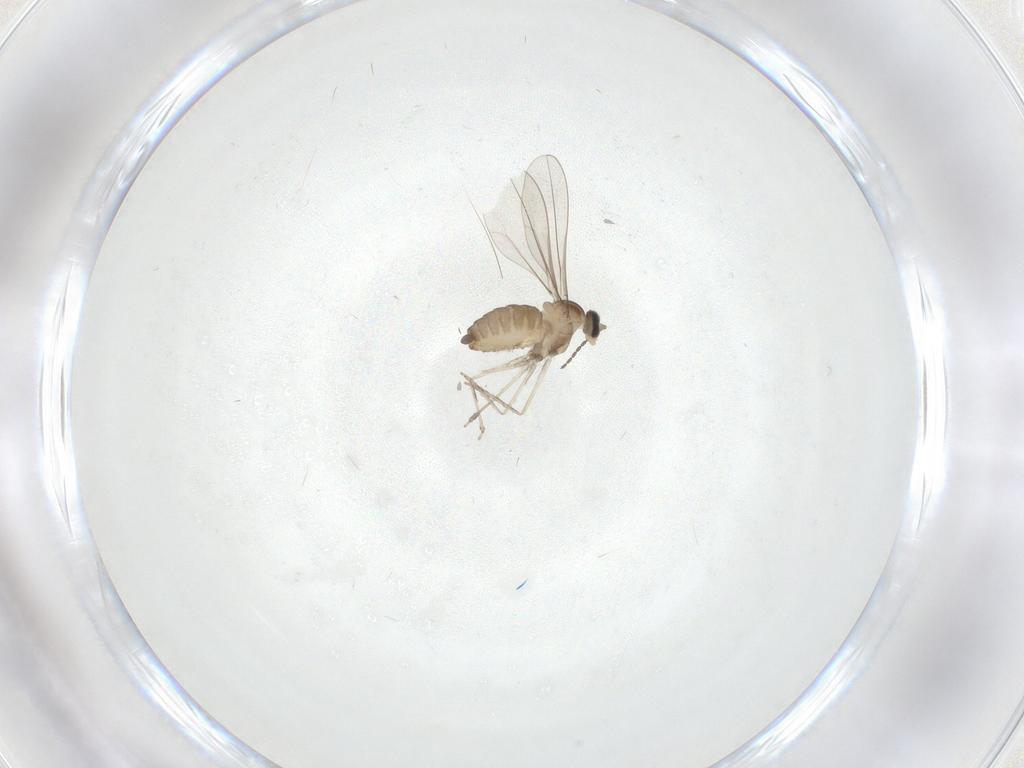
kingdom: Animalia
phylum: Arthropoda
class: Insecta
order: Diptera
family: Cecidomyiidae
